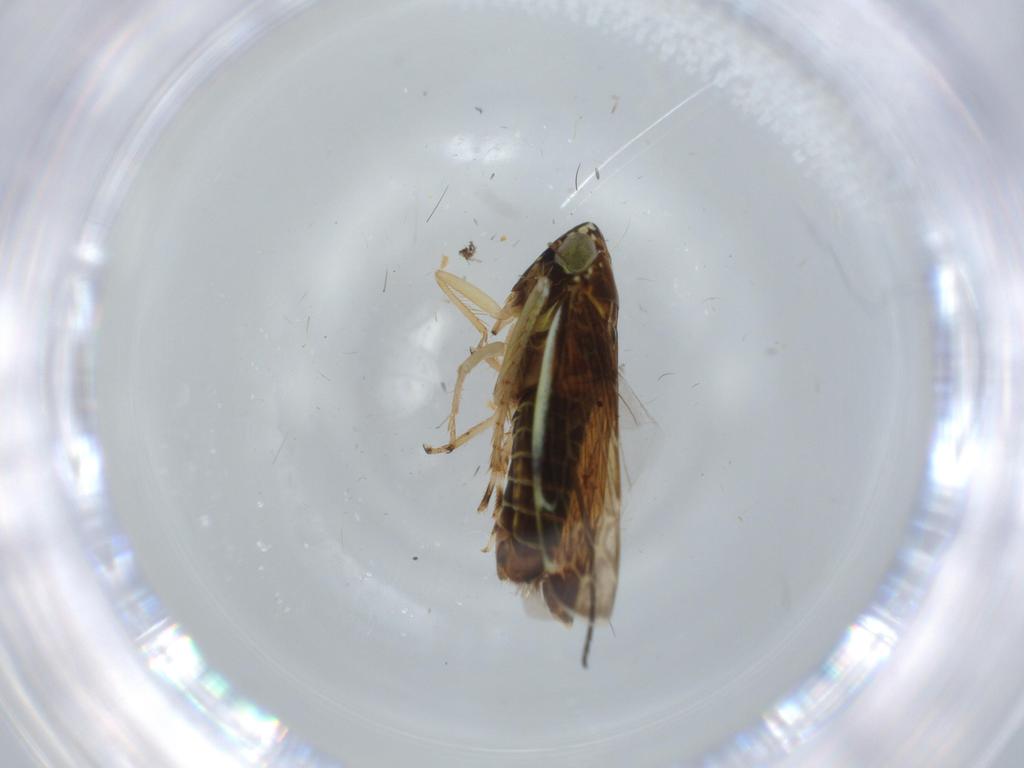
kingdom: Animalia
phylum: Arthropoda
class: Insecta
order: Hemiptera
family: Cicadellidae
